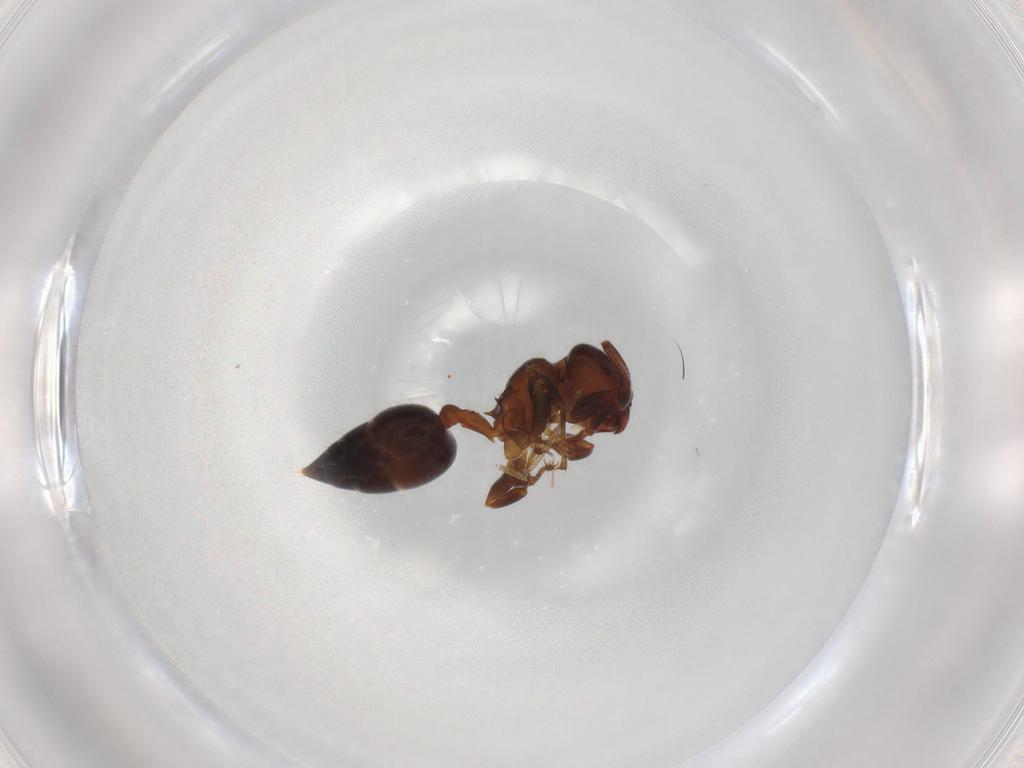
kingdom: Animalia
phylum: Arthropoda
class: Insecta
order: Hymenoptera
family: Formicidae
